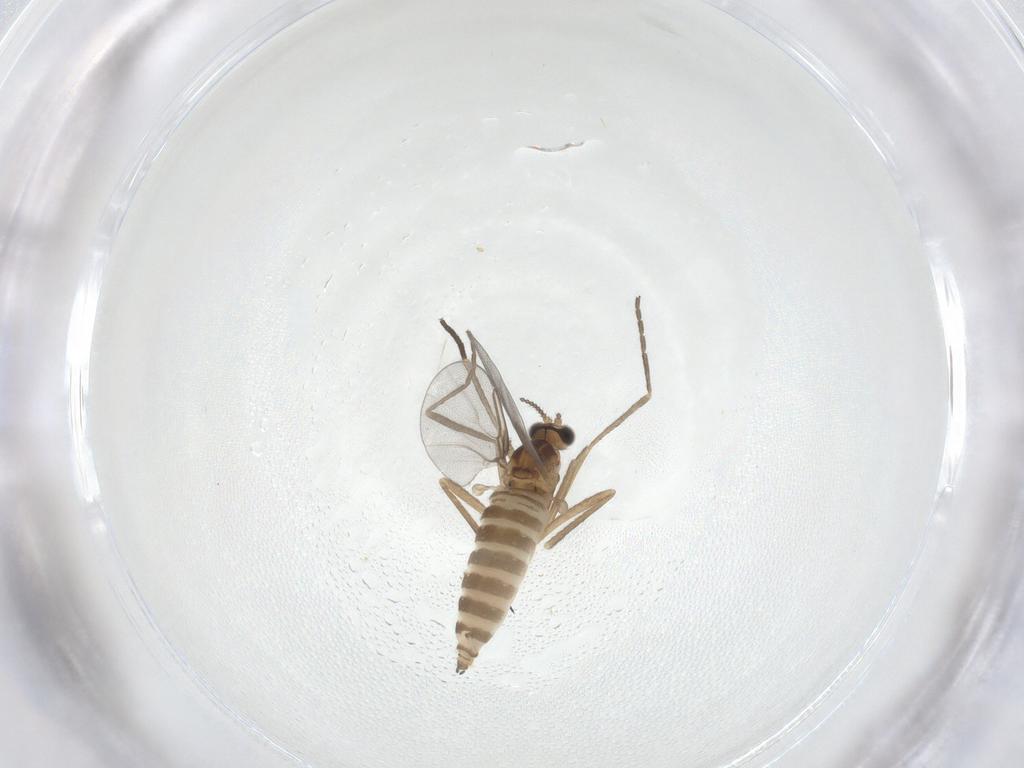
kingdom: Animalia
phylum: Arthropoda
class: Insecta
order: Diptera
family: Cecidomyiidae
